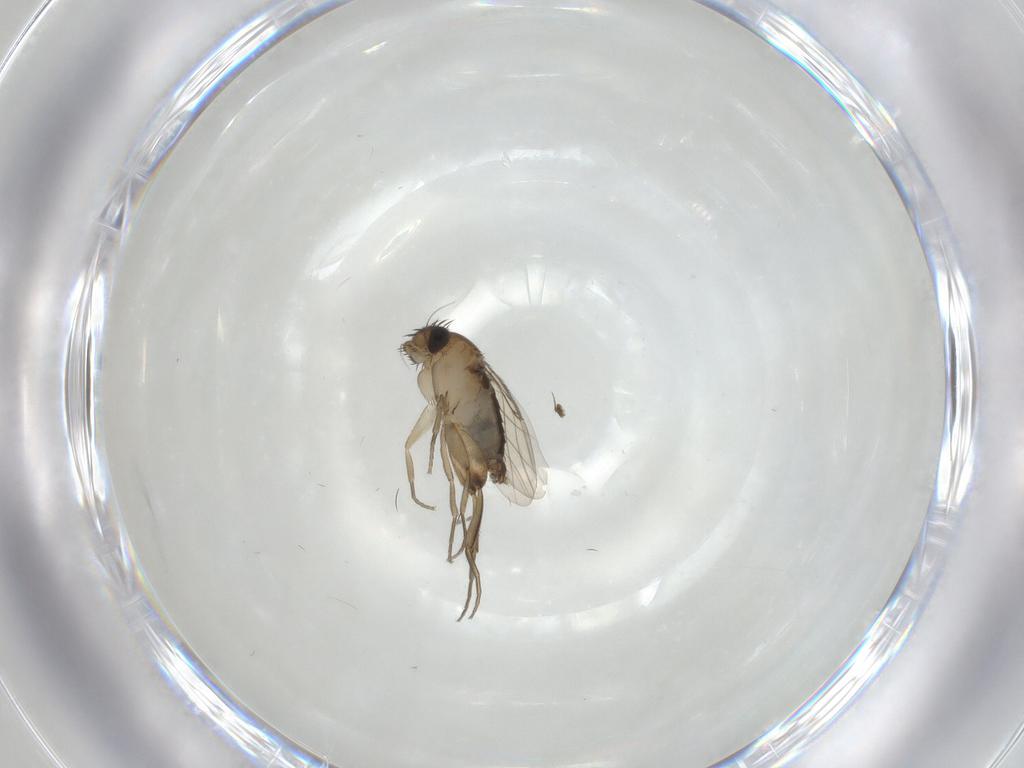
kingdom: Animalia
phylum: Arthropoda
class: Insecta
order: Diptera
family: Phoridae
